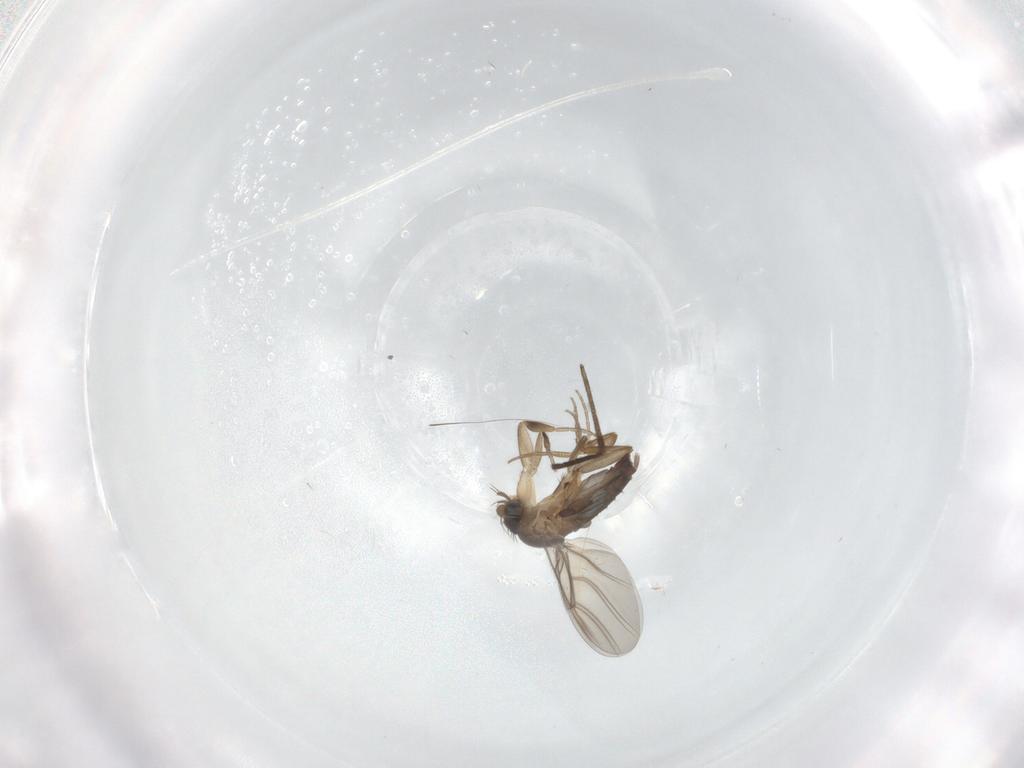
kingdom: Animalia
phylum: Arthropoda
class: Insecta
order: Diptera
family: Phoridae
